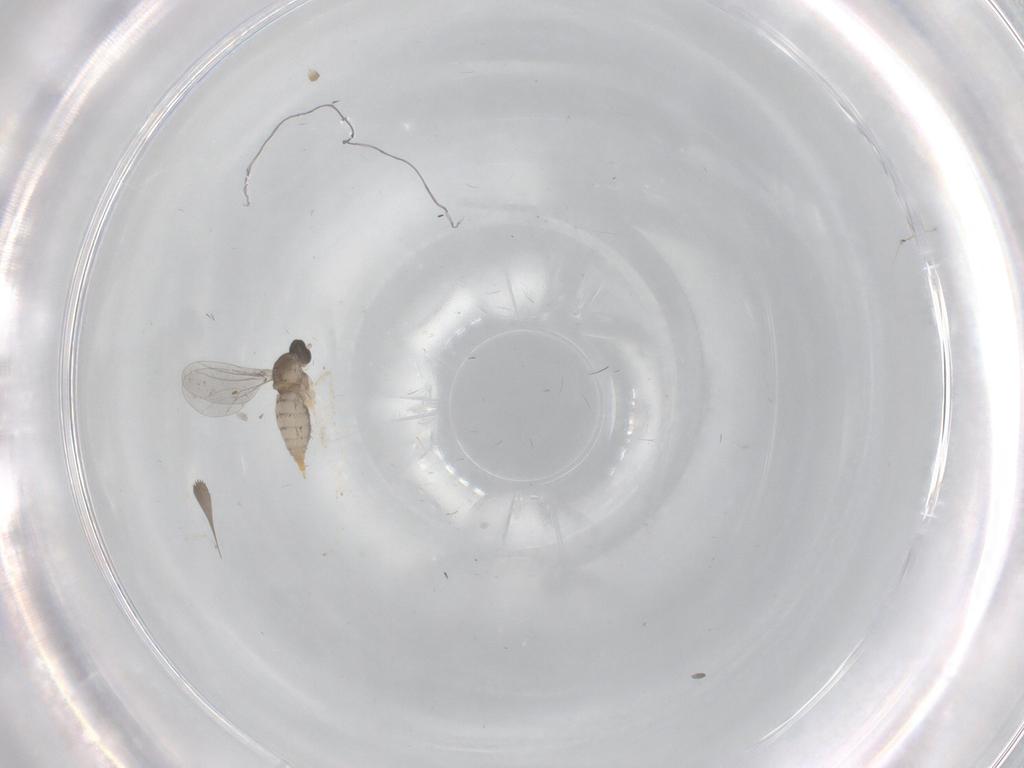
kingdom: Animalia
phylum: Arthropoda
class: Insecta
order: Diptera
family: Cecidomyiidae
